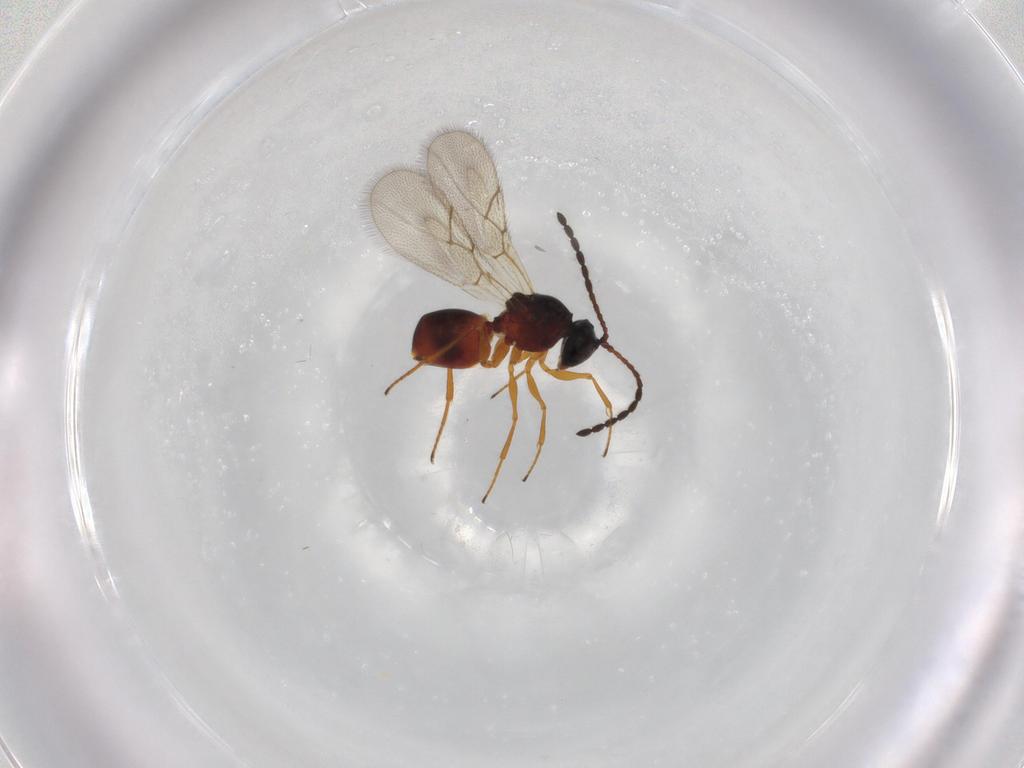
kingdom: Animalia
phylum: Arthropoda
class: Insecta
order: Hymenoptera
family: Figitidae
